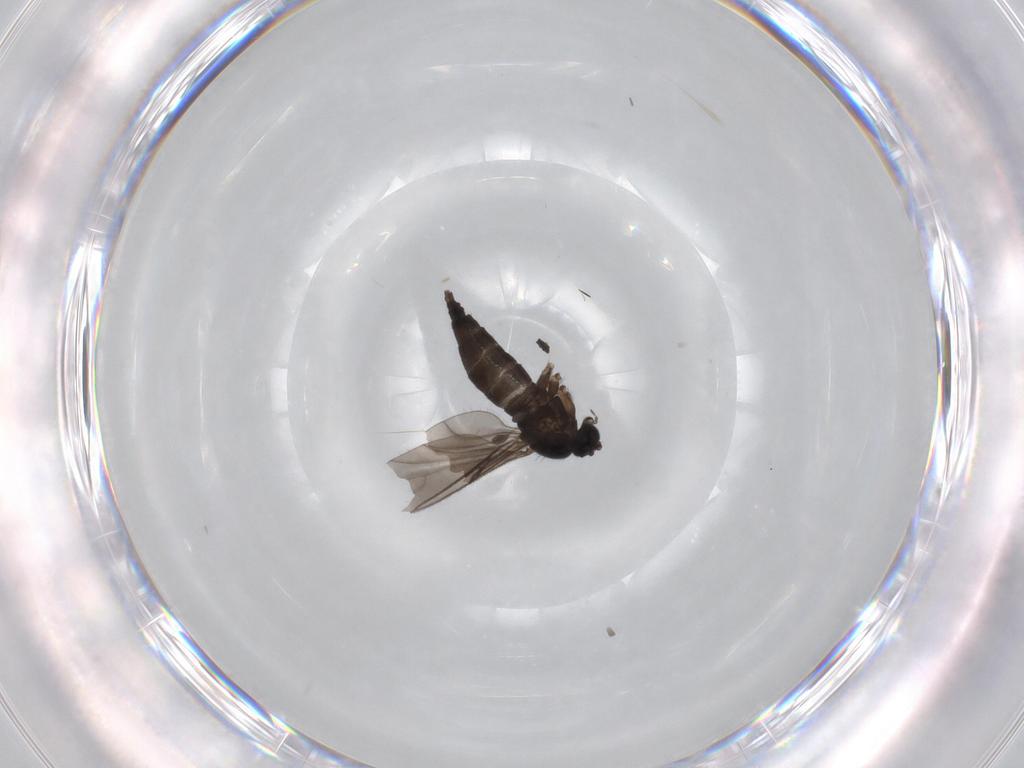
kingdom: Animalia
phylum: Arthropoda
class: Insecta
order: Diptera
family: Sciaridae
